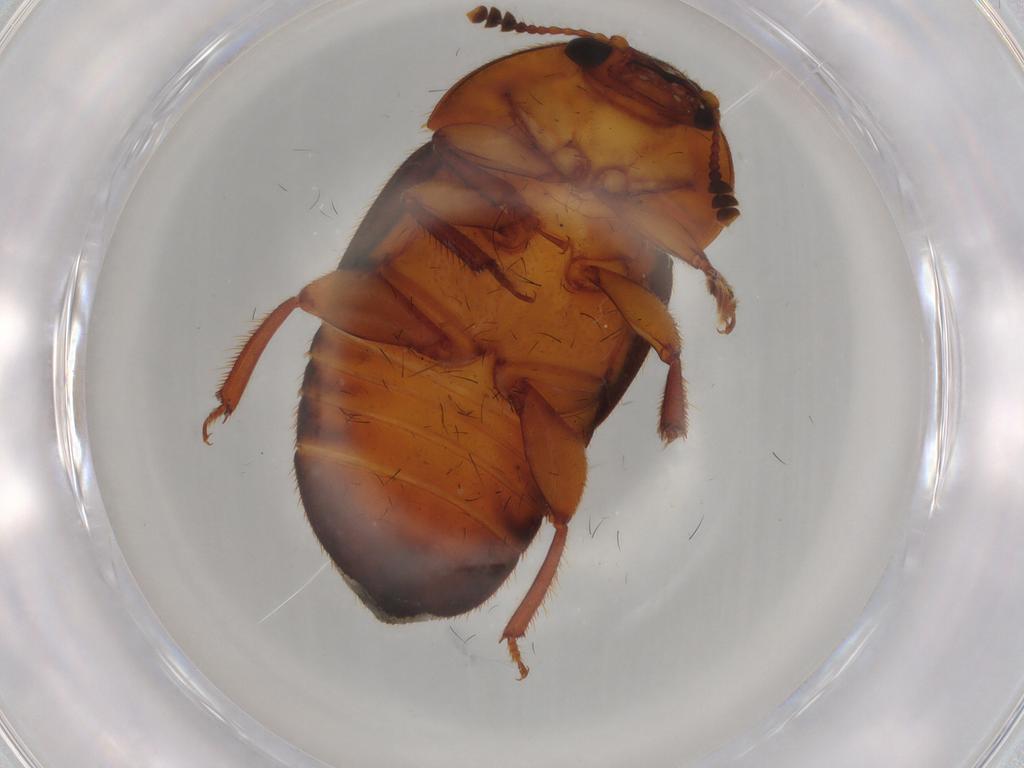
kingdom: Animalia
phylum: Arthropoda
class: Insecta
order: Coleoptera
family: Nitidulidae
